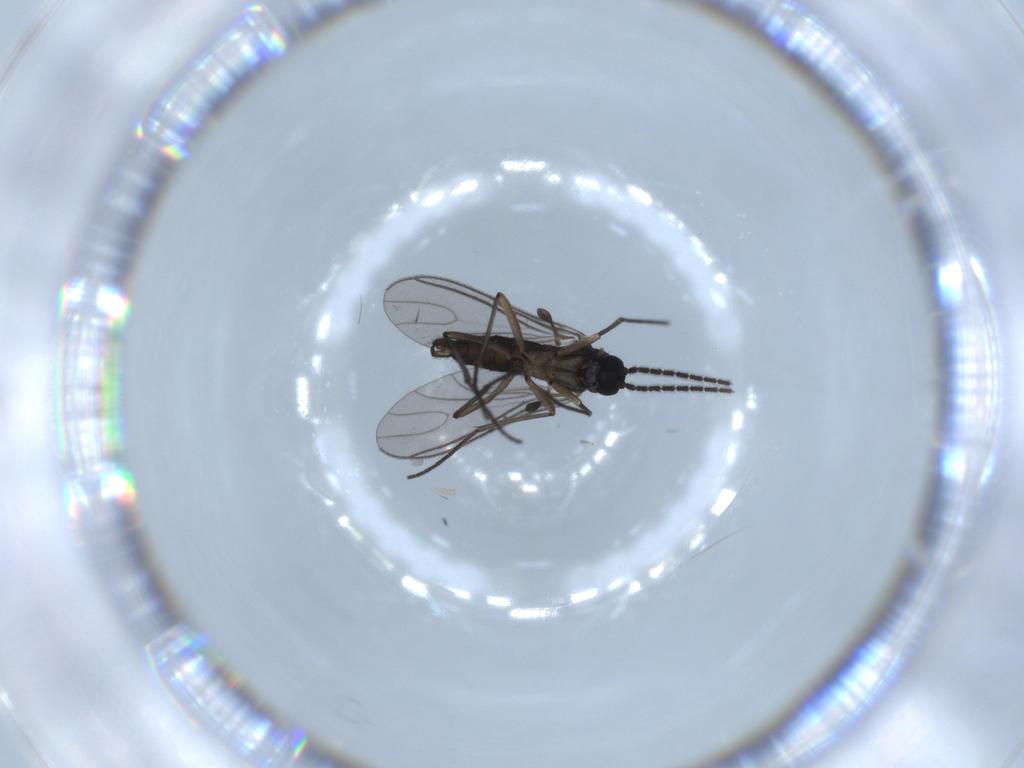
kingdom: Animalia
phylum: Arthropoda
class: Insecta
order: Diptera
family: Sciaridae
